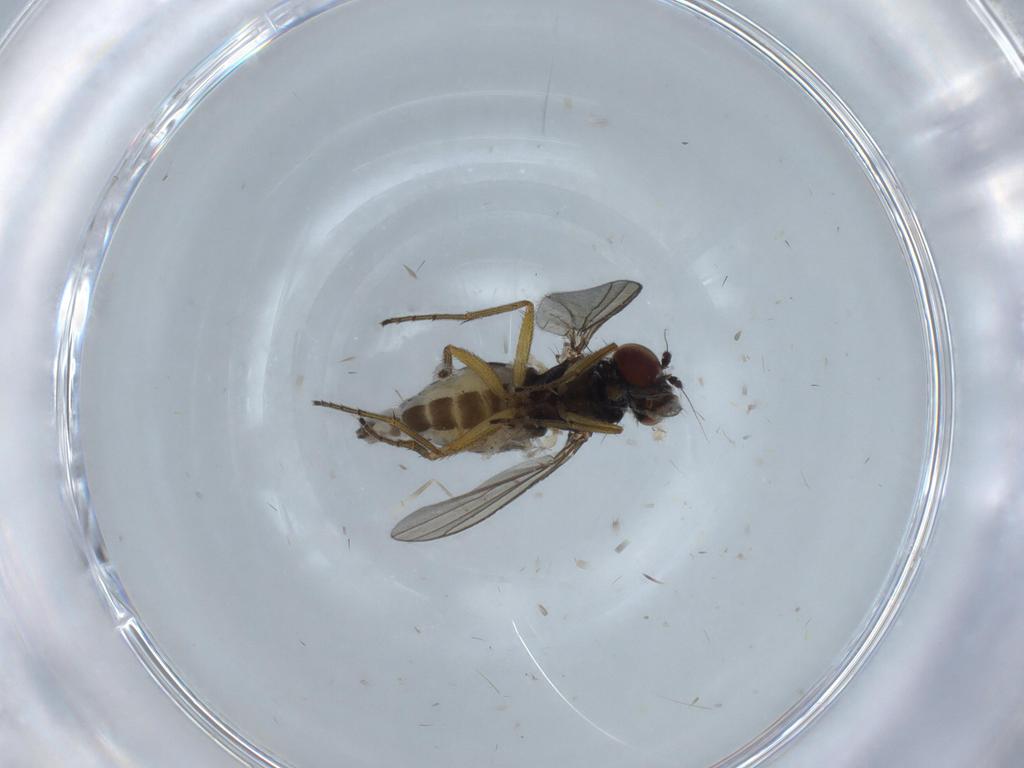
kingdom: Animalia
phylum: Arthropoda
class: Insecta
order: Diptera
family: Dolichopodidae
